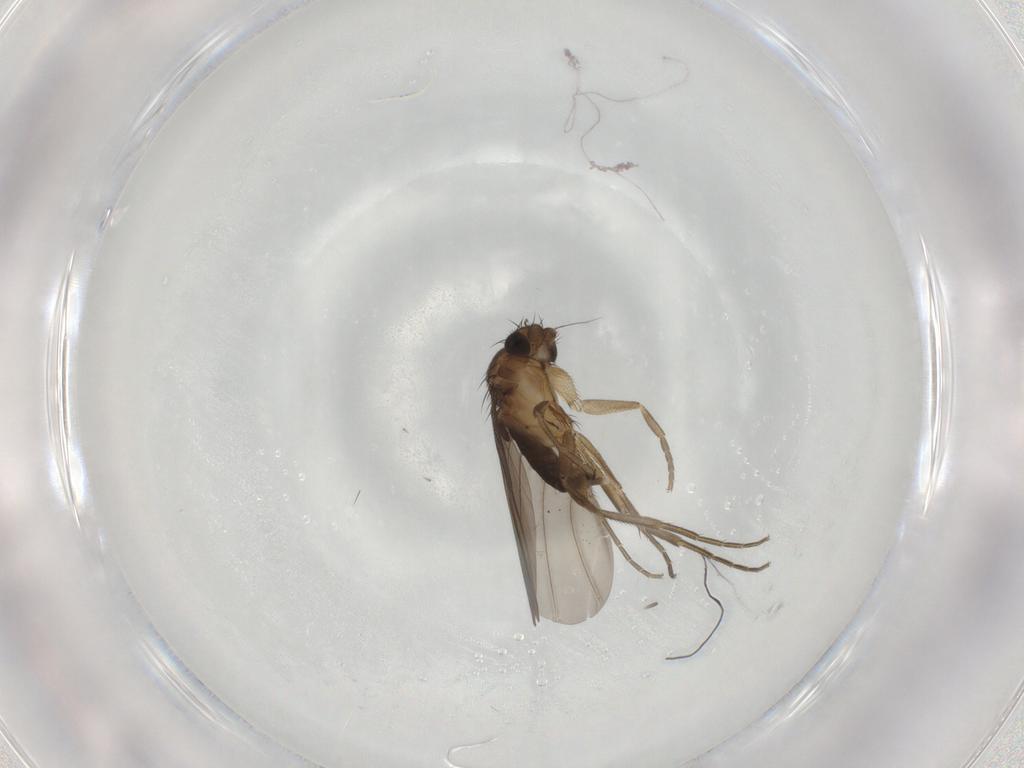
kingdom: Animalia
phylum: Arthropoda
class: Insecta
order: Diptera
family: Phoridae
